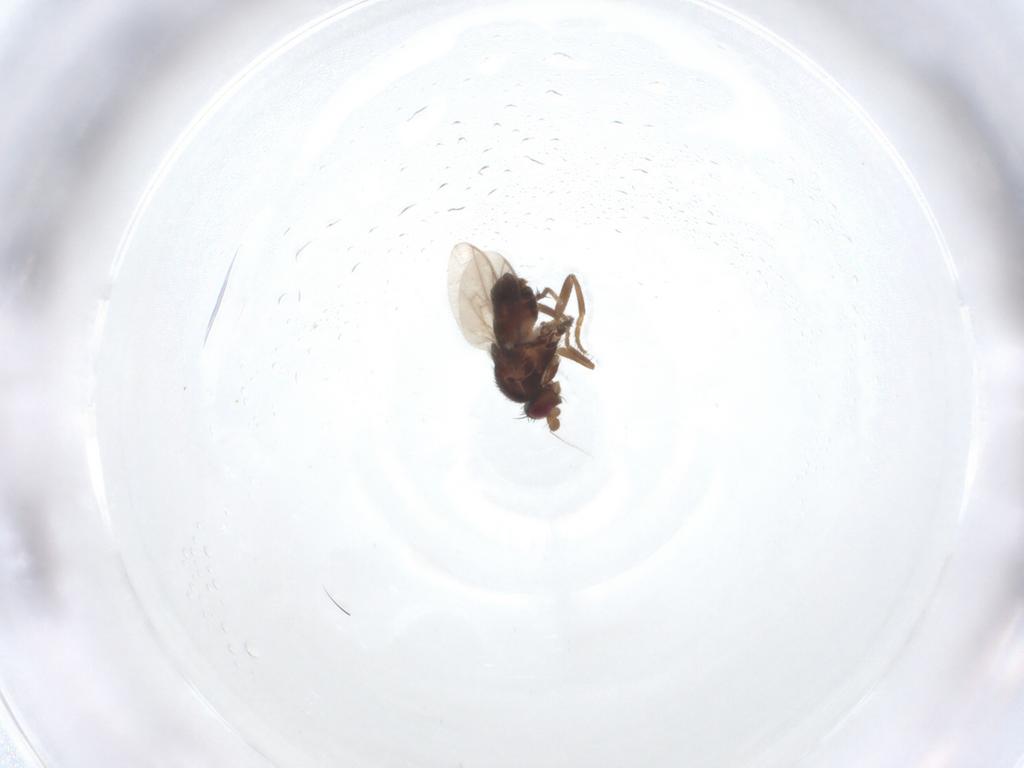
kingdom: Animalia
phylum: Arthropoda
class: Insecta
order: Diptera
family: Sphaeroceridae
